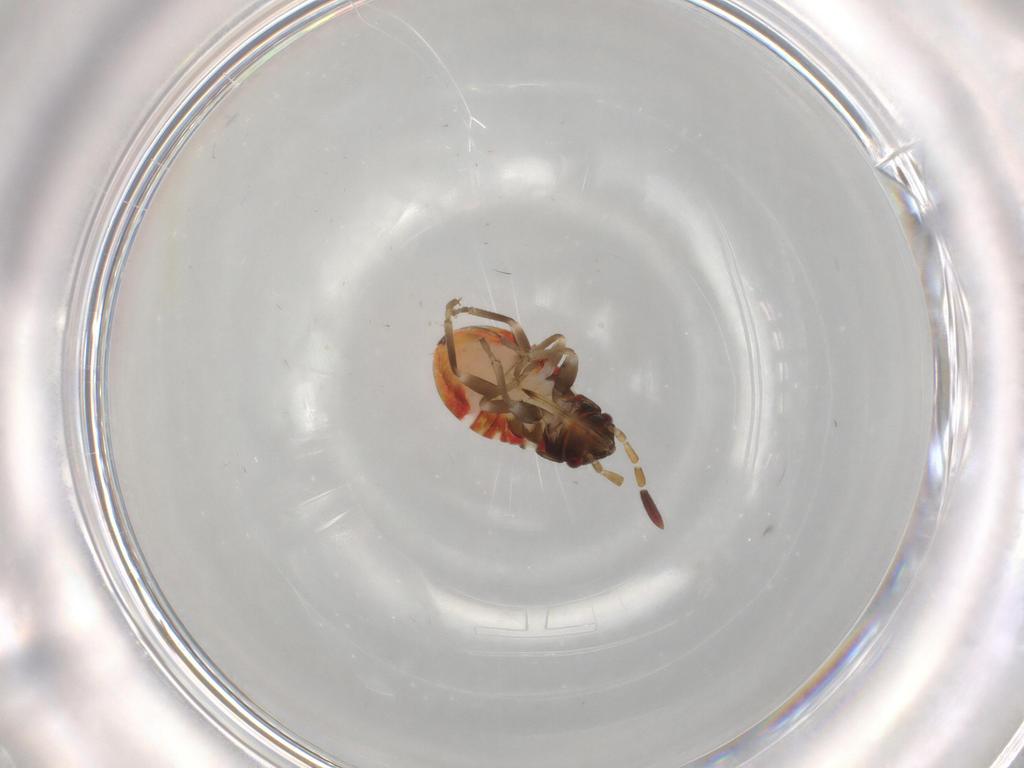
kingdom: Animalia
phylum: Arthropoda
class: Insecta
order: Hemiptera
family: Rhyparochromidae
